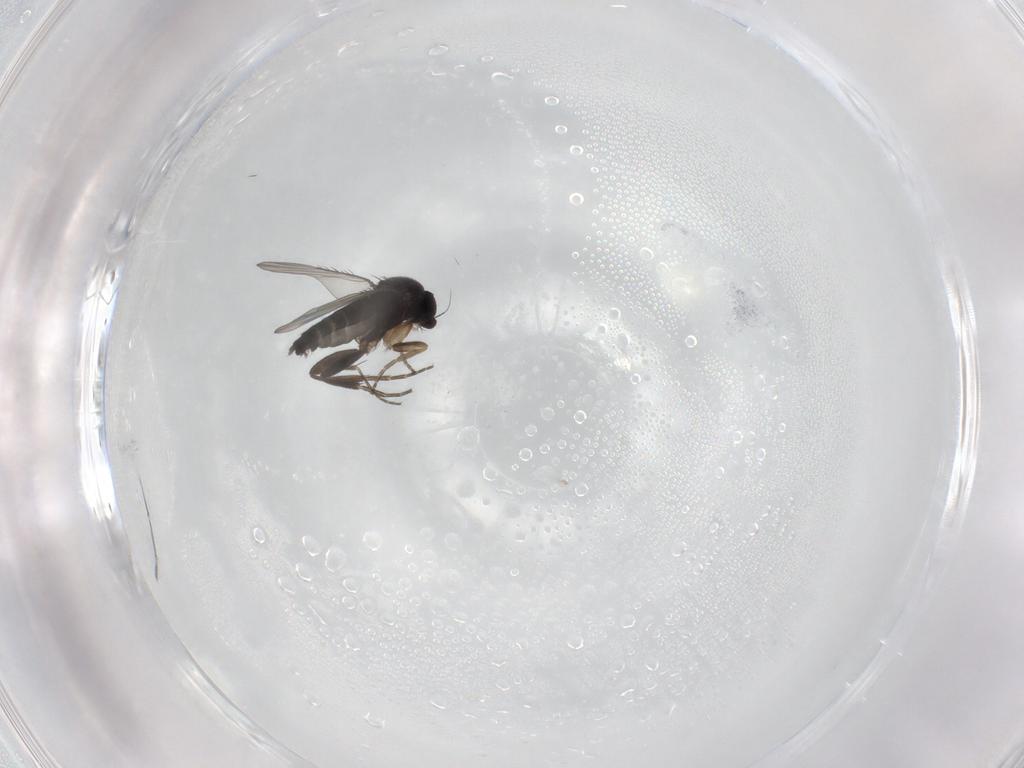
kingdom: Animalia
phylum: Arthropoda
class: Insecta
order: Diptera
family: Phoridae
